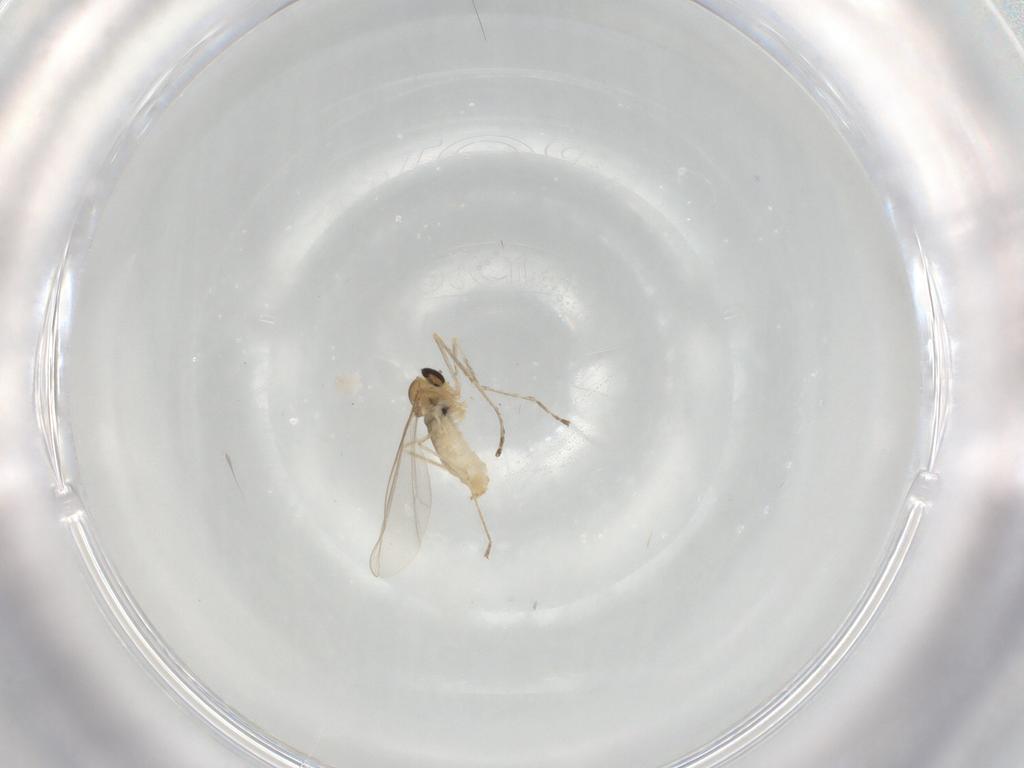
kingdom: Animalia
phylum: Arthropoda
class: Insecta
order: Diptera
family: Cecidomyiidae
